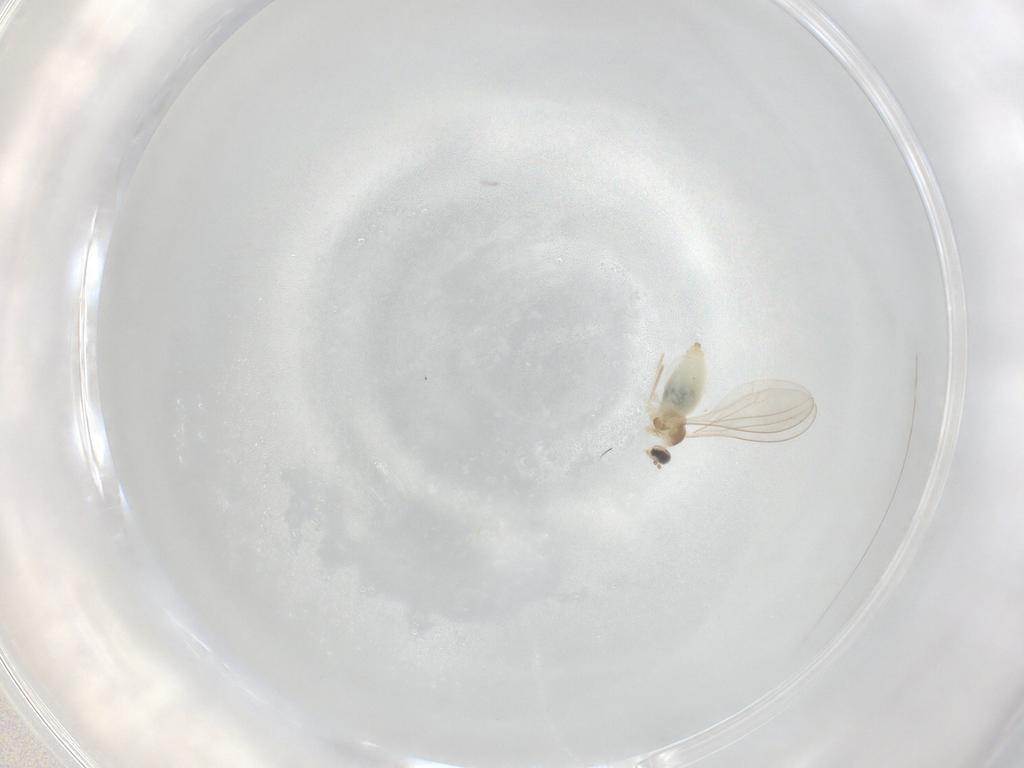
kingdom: Animalia
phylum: Arthropoda
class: Insecta
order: Diptera
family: Cecidomyiidae
